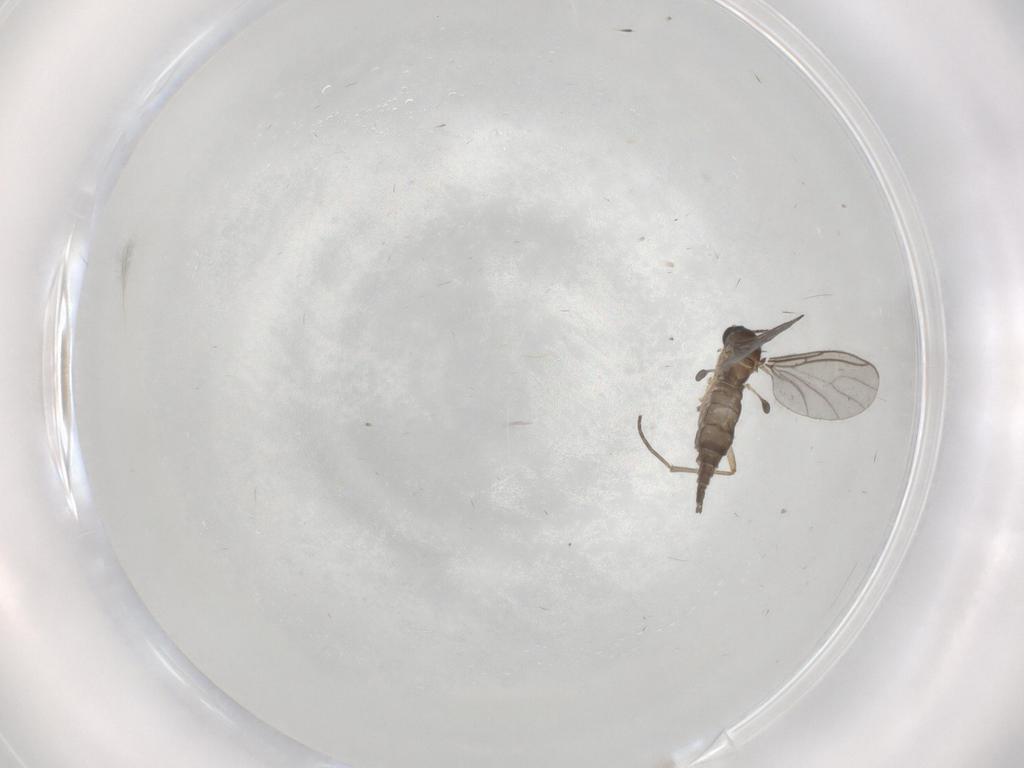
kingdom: Animalia
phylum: Arthropoda
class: Insecta
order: Diptera
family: Sciaridae
